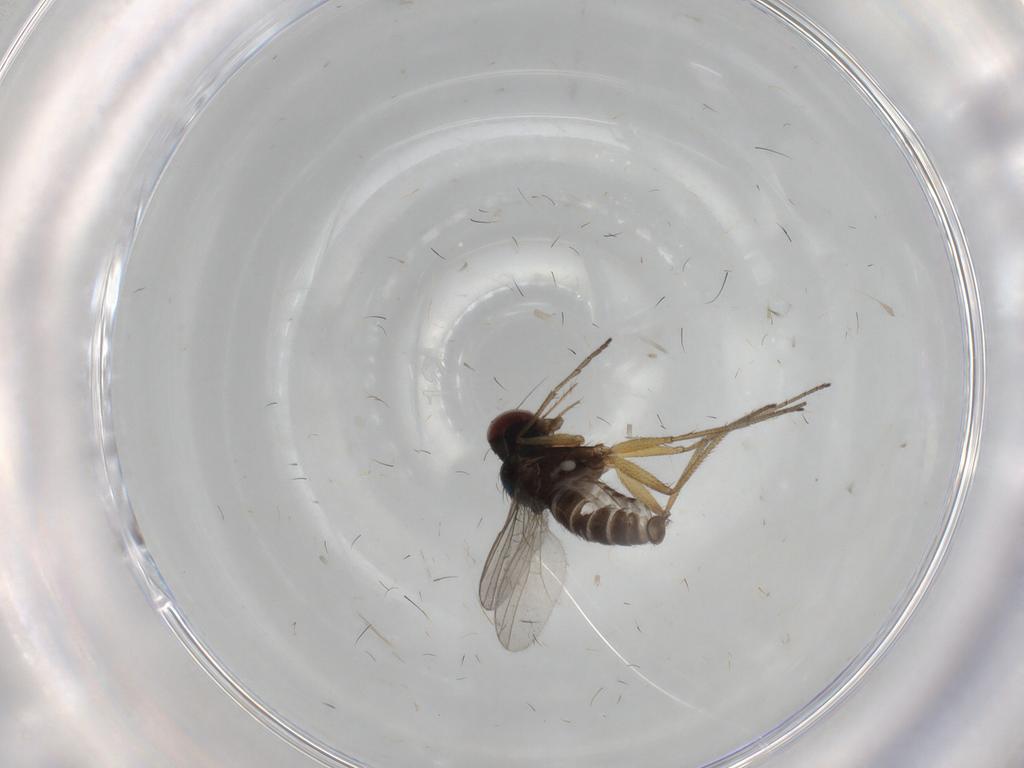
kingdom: Animalia
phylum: Arthropoda
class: Insecta
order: Diptera
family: Dolichopodidae
